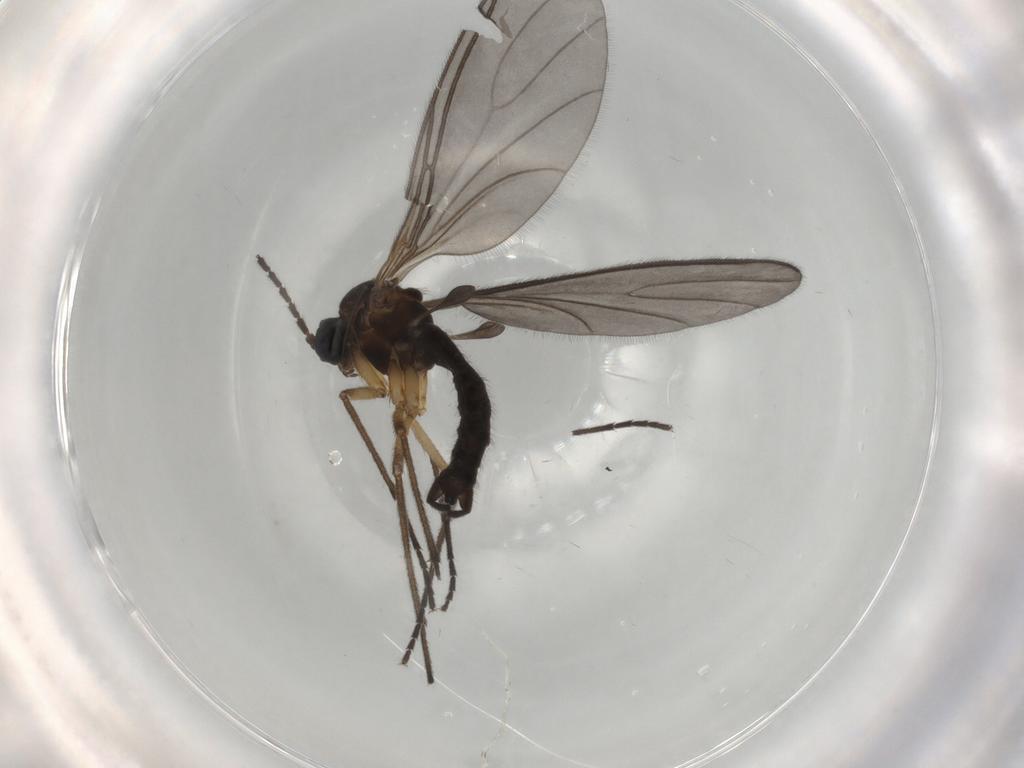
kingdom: Animalia
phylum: Arthropoda
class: Insecta
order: Diptera
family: Sciaridae
